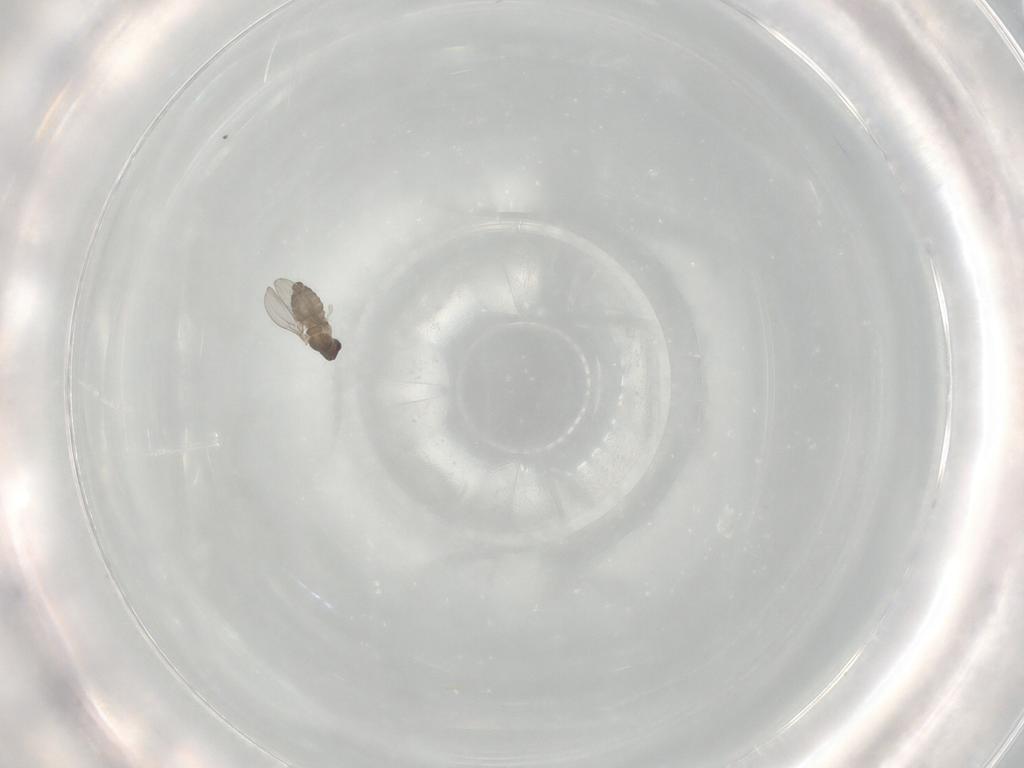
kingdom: Animalia
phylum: Arthropoda
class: Insecta
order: Diptera
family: Cecidomyiidae
